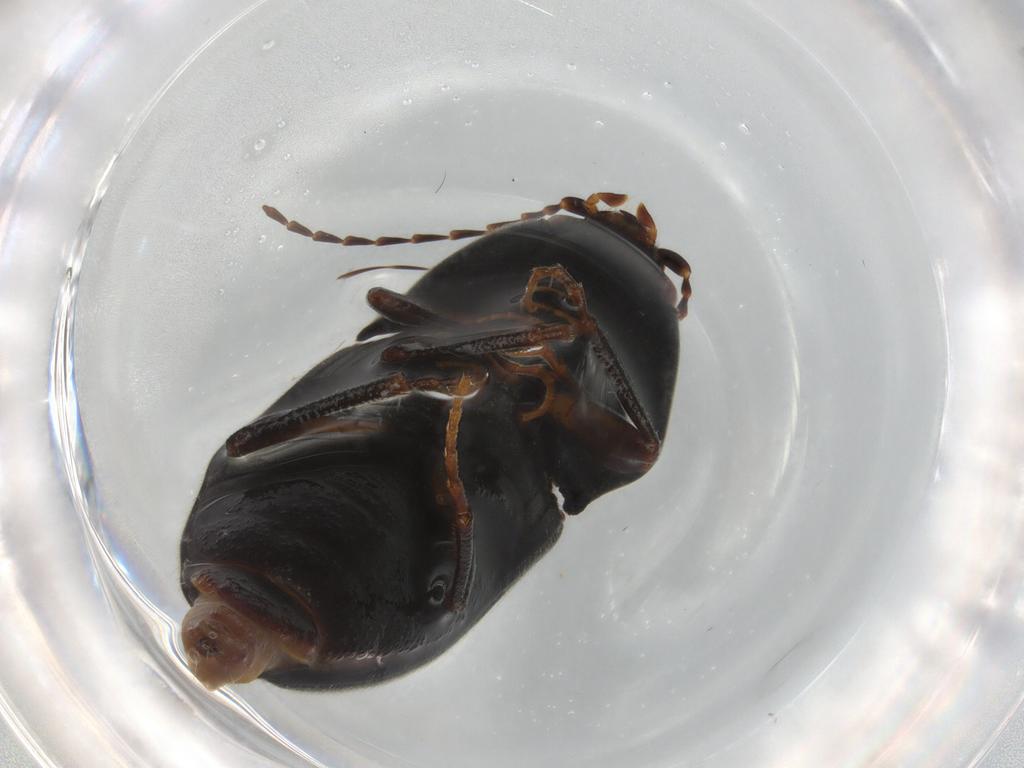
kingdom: Animalia
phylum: Arthropoda
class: Insecta
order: Coleoptera
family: Elateridae
